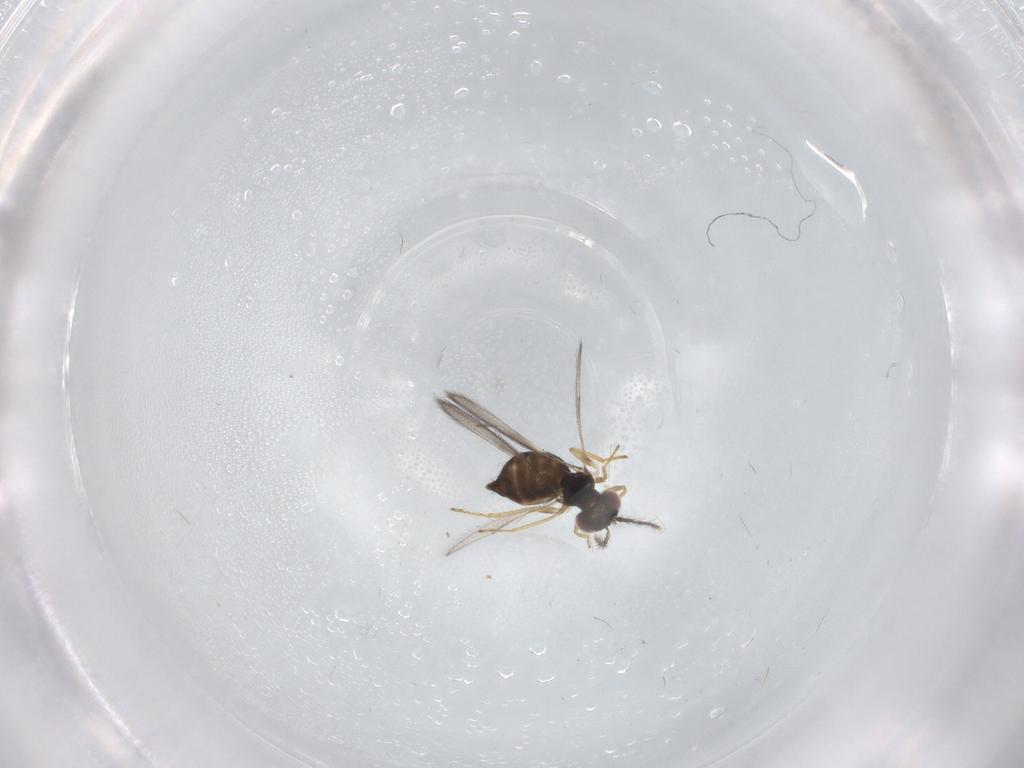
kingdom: Animalia
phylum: Arthropoda
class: Insecta
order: Hymenoptera
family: Eulophidae
